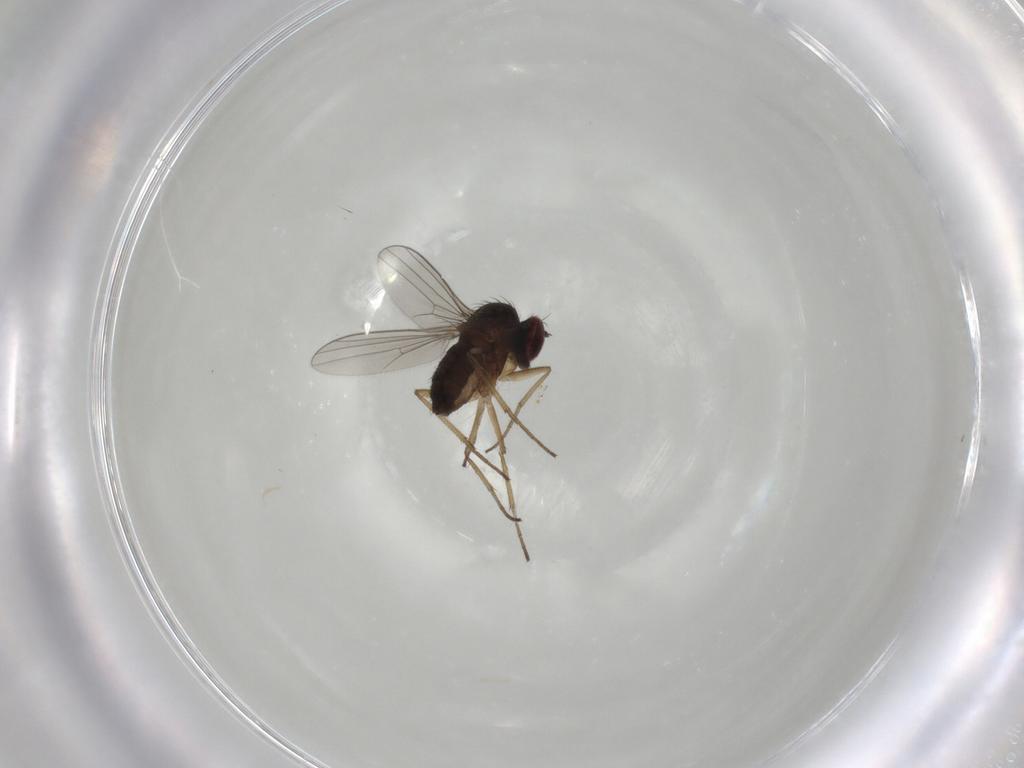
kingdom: Animalia
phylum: Arthropoda
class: Insecta
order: Diptera
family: Dolichopodidae
